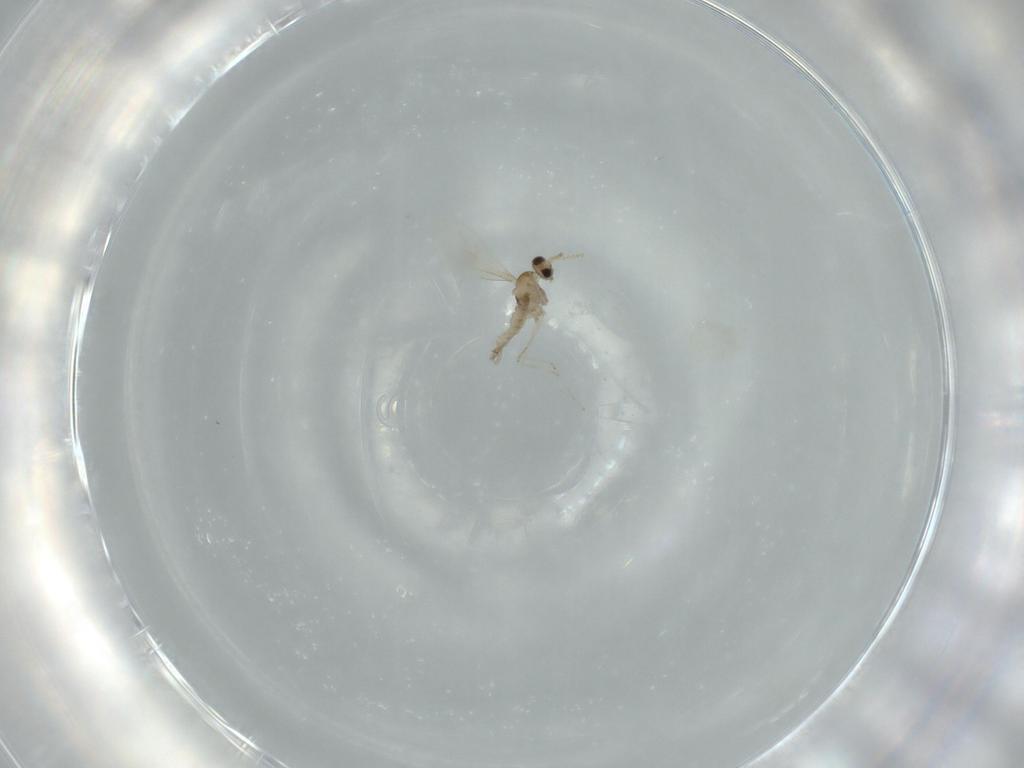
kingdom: Animalia
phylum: Arthropoda
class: Insecta
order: Diptera
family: Cecidomyiidae
